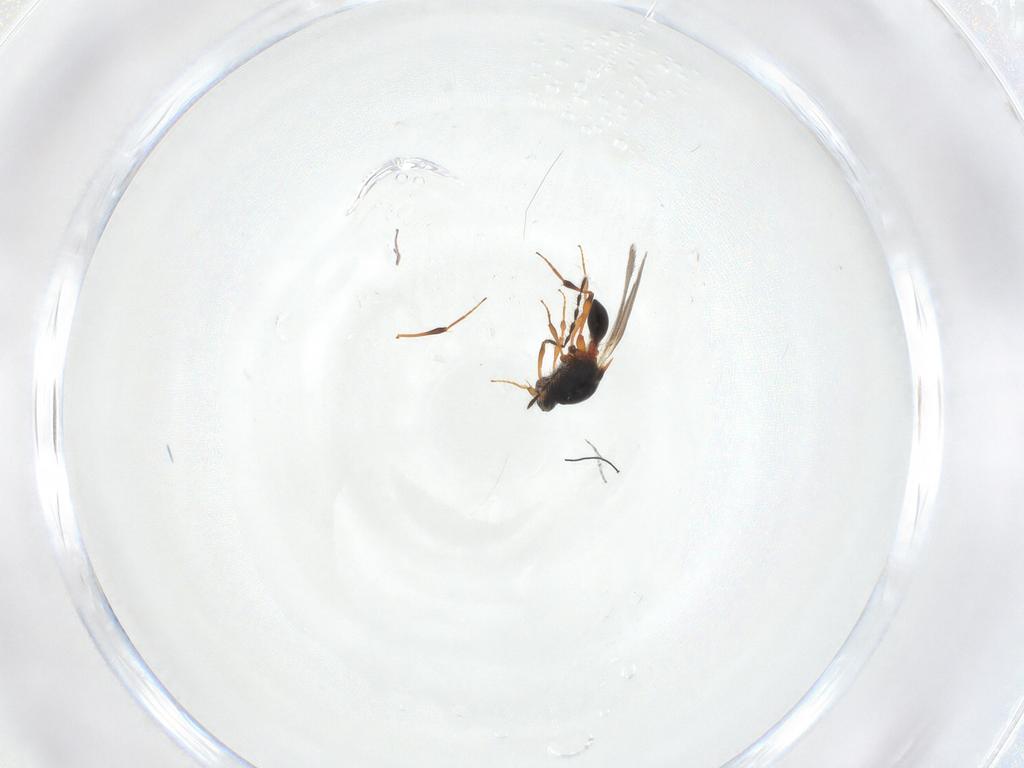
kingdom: Animalia
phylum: Arthropoda
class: Insecta
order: Hymenoptera
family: Platygastridae
